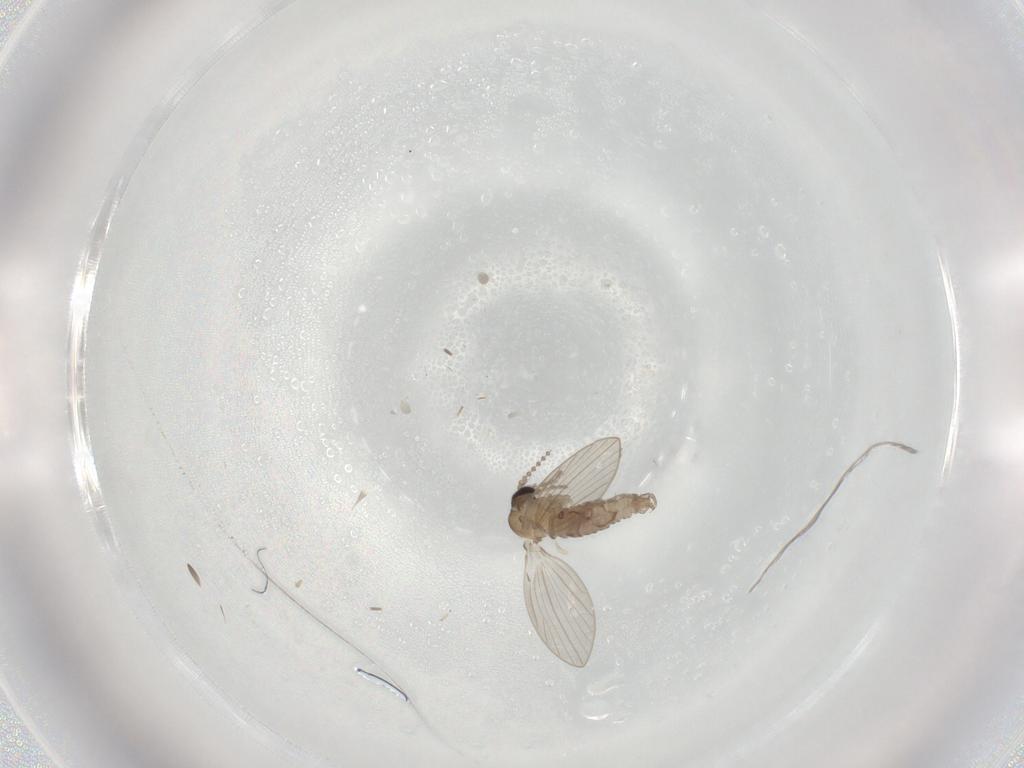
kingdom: Animalia
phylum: Arthropoda
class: Insecta
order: Diptera
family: Psychodidae
